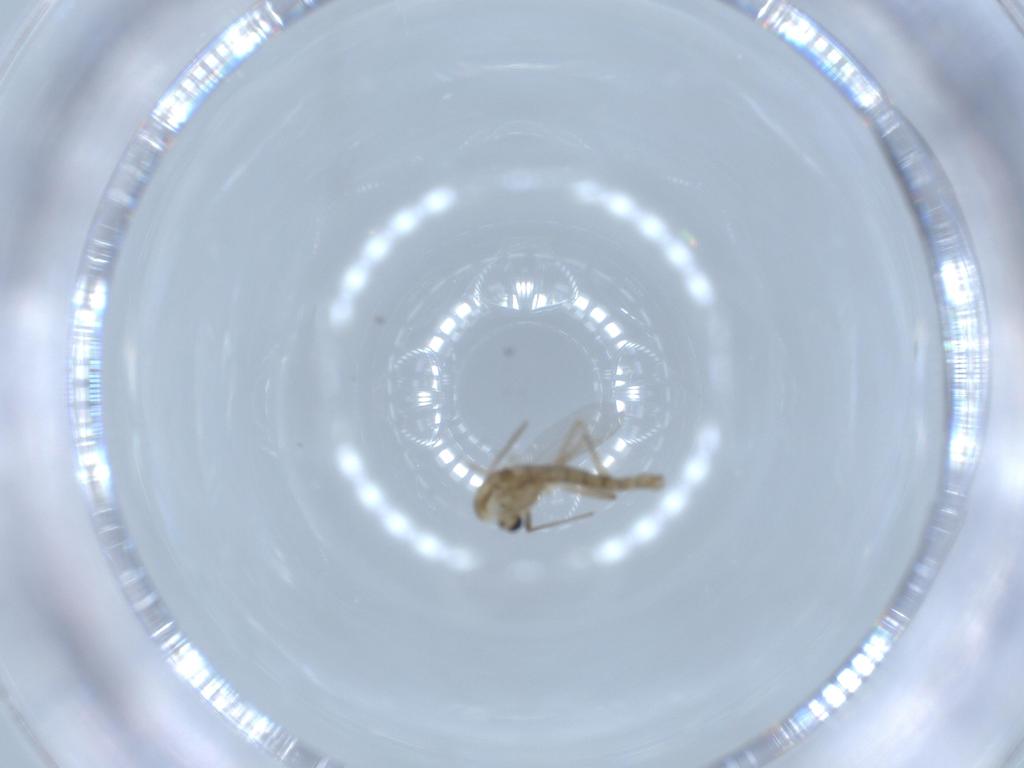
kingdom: Animalia
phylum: Arthropoda
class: Insecta
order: Diptera
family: Chironomidae
